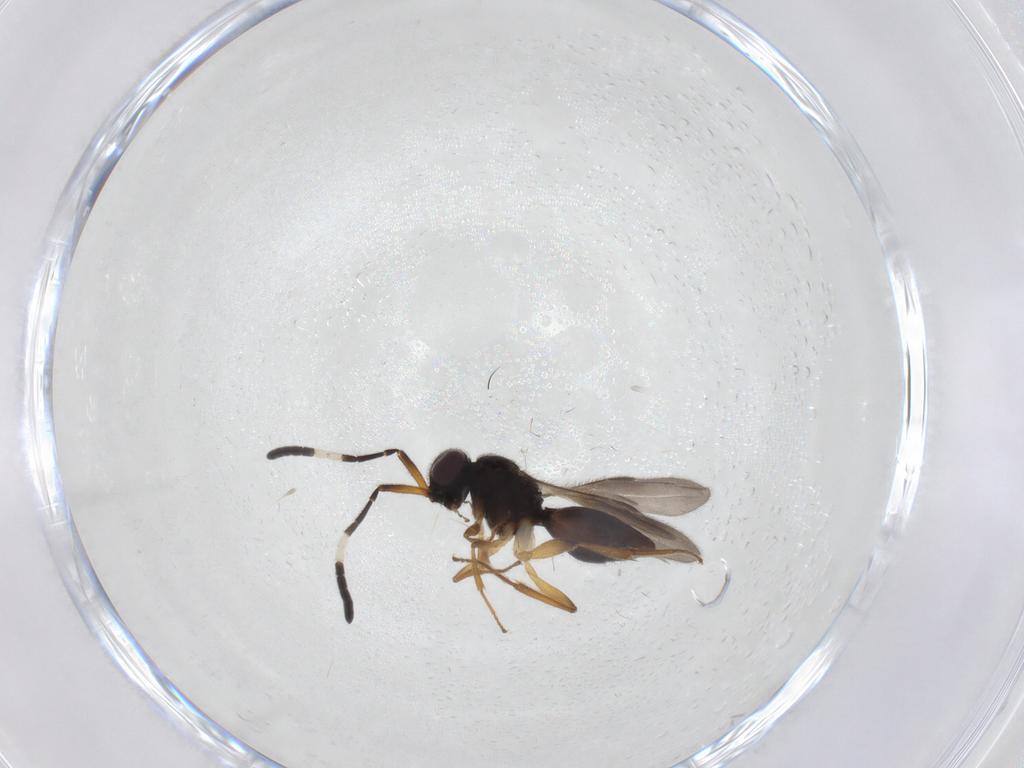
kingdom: Animalia
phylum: Arthropoda
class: Insecta
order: Hymenoptera
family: Megaspilidae
